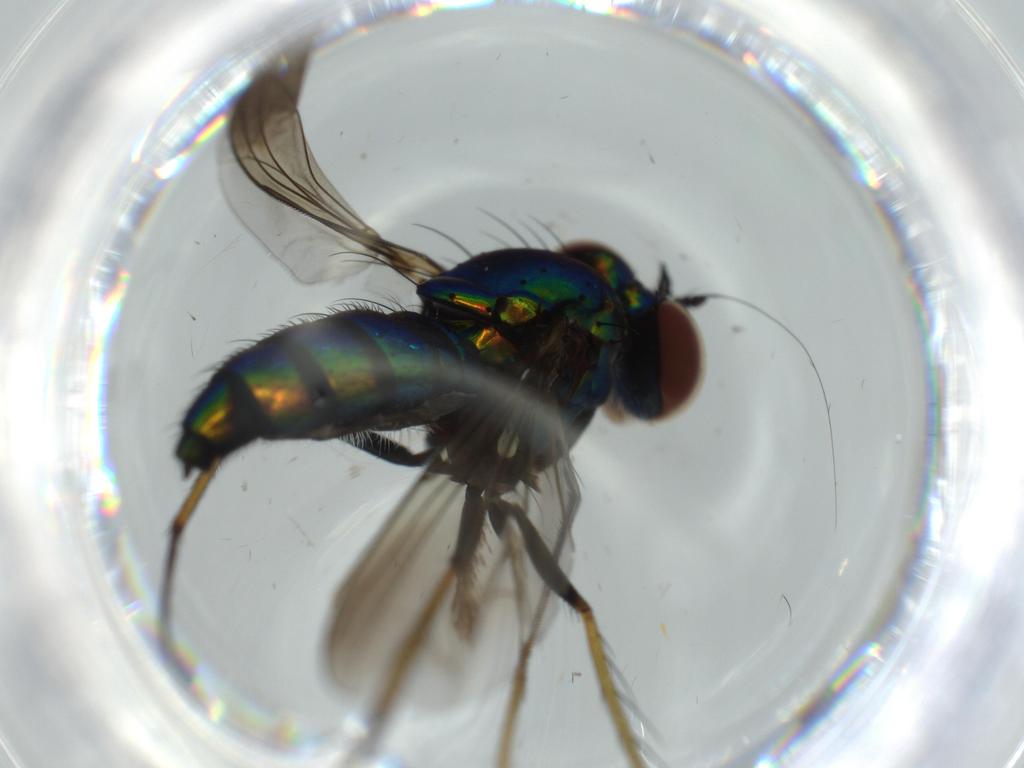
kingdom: Animalia
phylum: Arthropoda
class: Insecta
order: Diptera
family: Dolichopodidae
